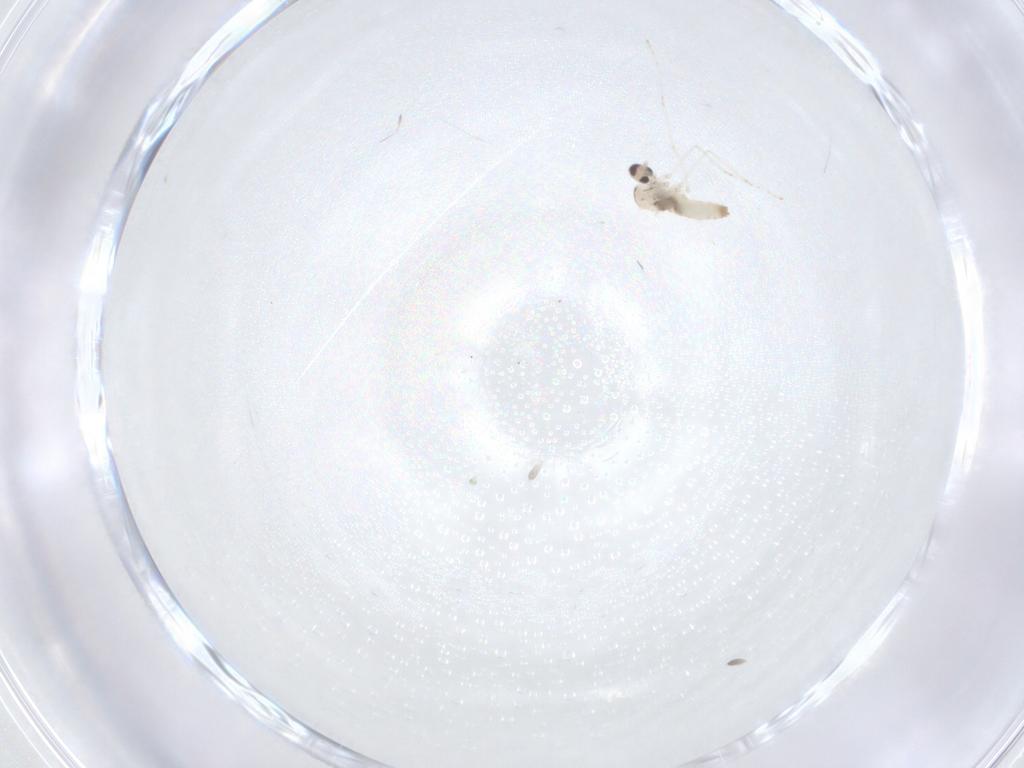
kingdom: Animalia
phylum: Arthropoda
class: Insecta
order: Diptera
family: Cecidomyiidae
